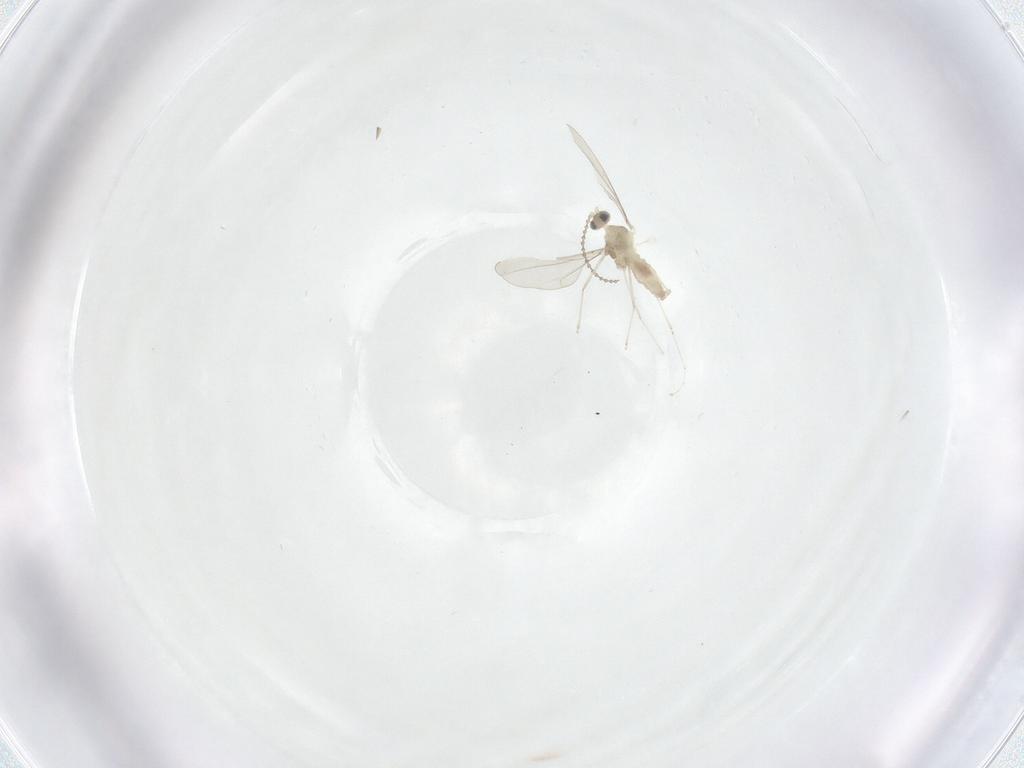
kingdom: Animalia
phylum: Arthropoda
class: Insecta
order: Diptera
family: Cecidomyiidae
